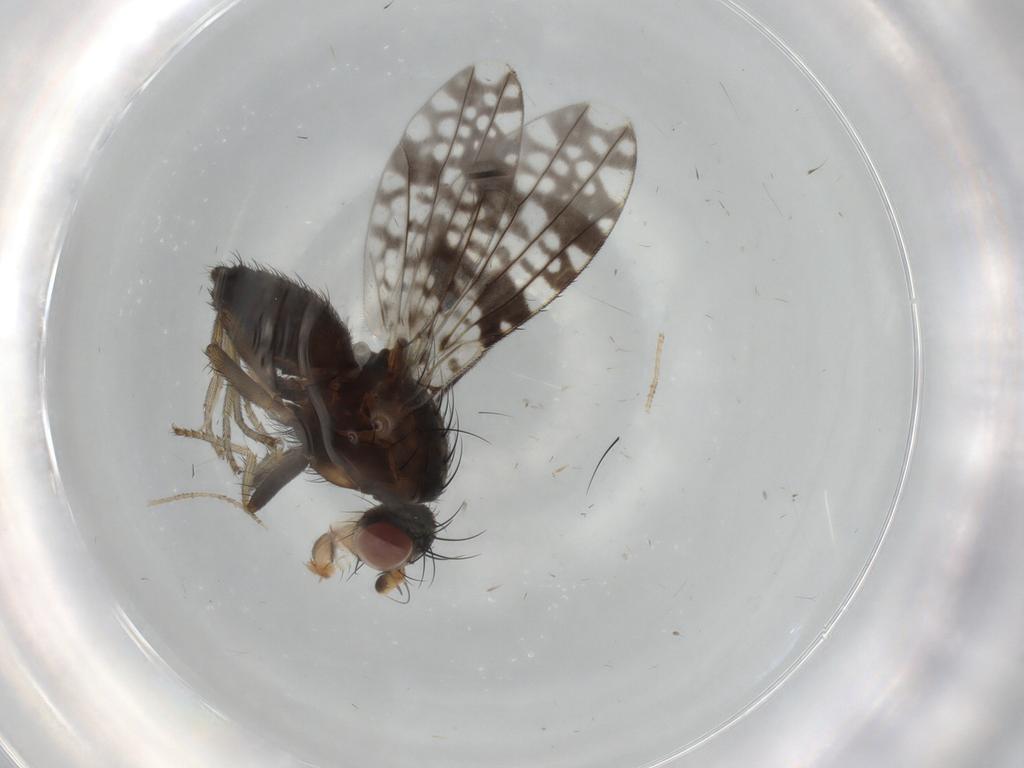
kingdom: Animalia
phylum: Arthropoda
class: Insecta
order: Diptera
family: Tephritidae
